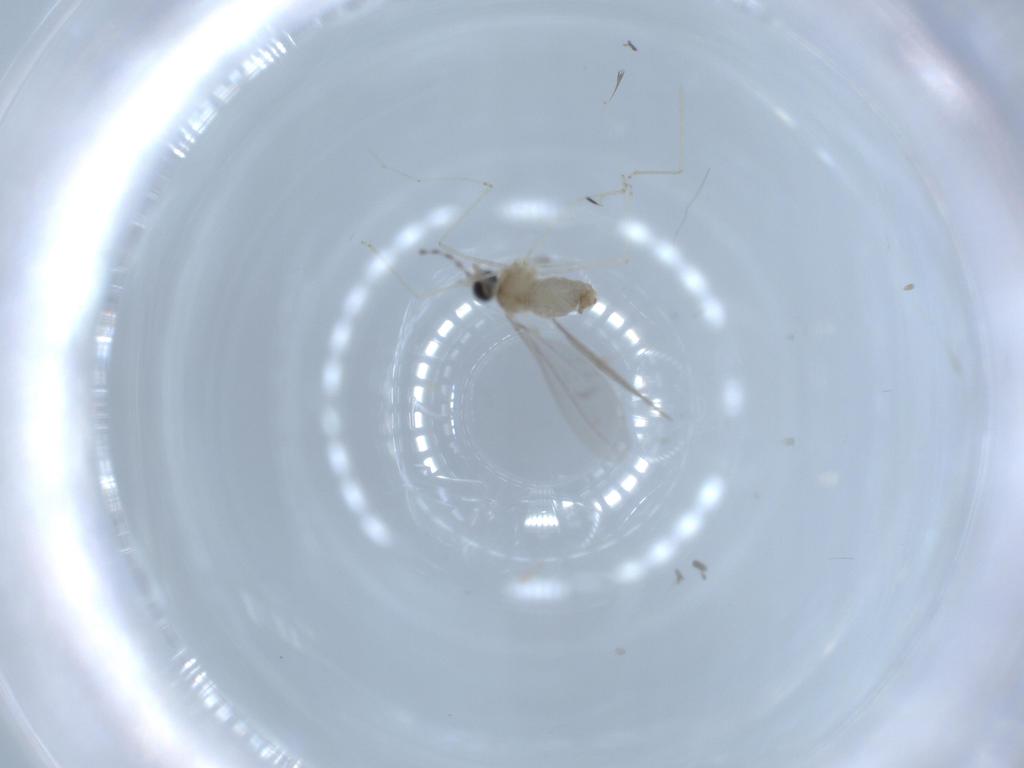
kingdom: Animalia
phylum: Arthropoda
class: Insecta
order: Diptera
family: Cecidomyiidae
